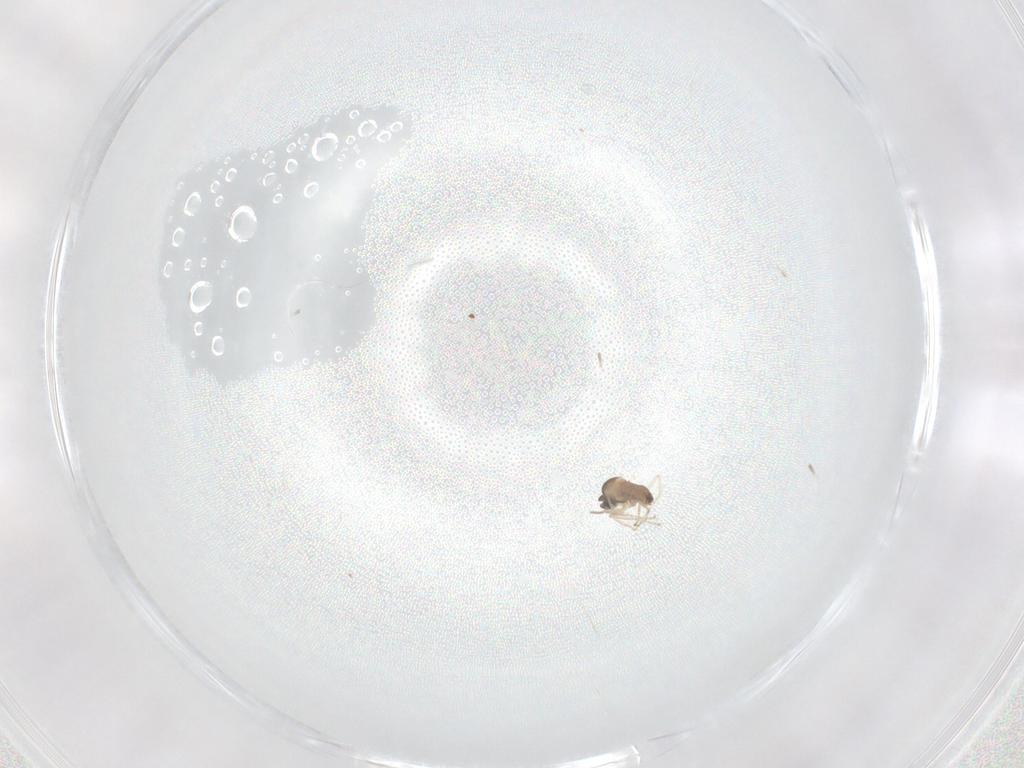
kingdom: Animalia
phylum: Arthropoda
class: Insecta
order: Diptera
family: Cecidomyiidae
